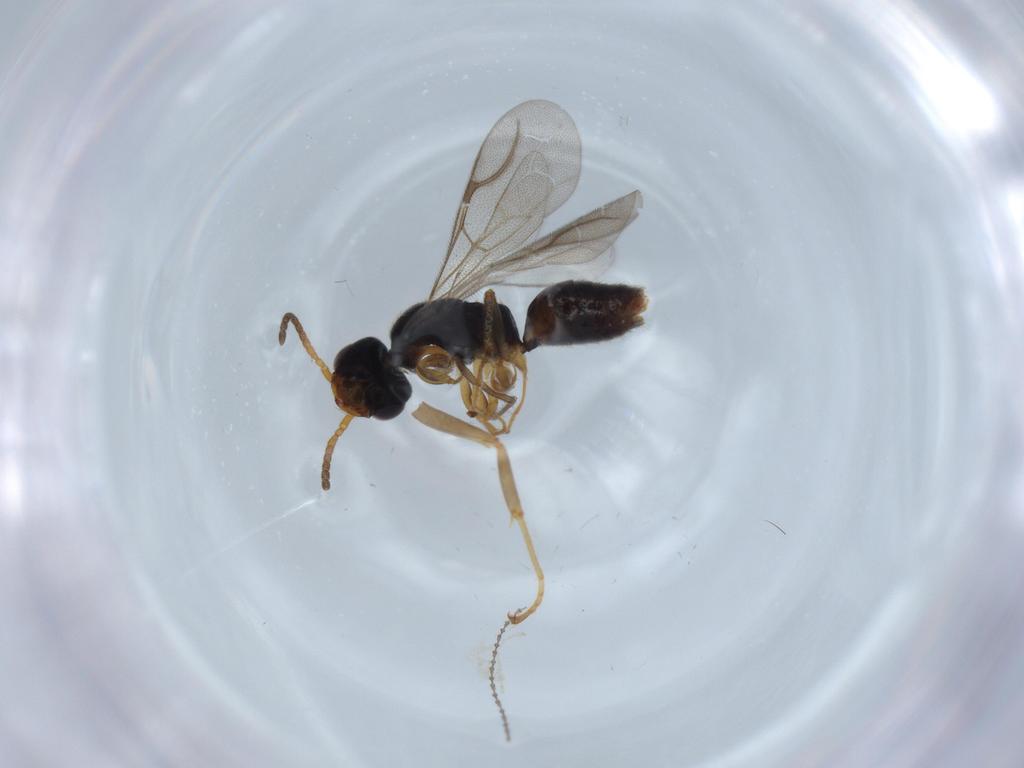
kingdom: Animalia
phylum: Arthropoda
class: Insecta
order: Hymenoptera
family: Formicidae
